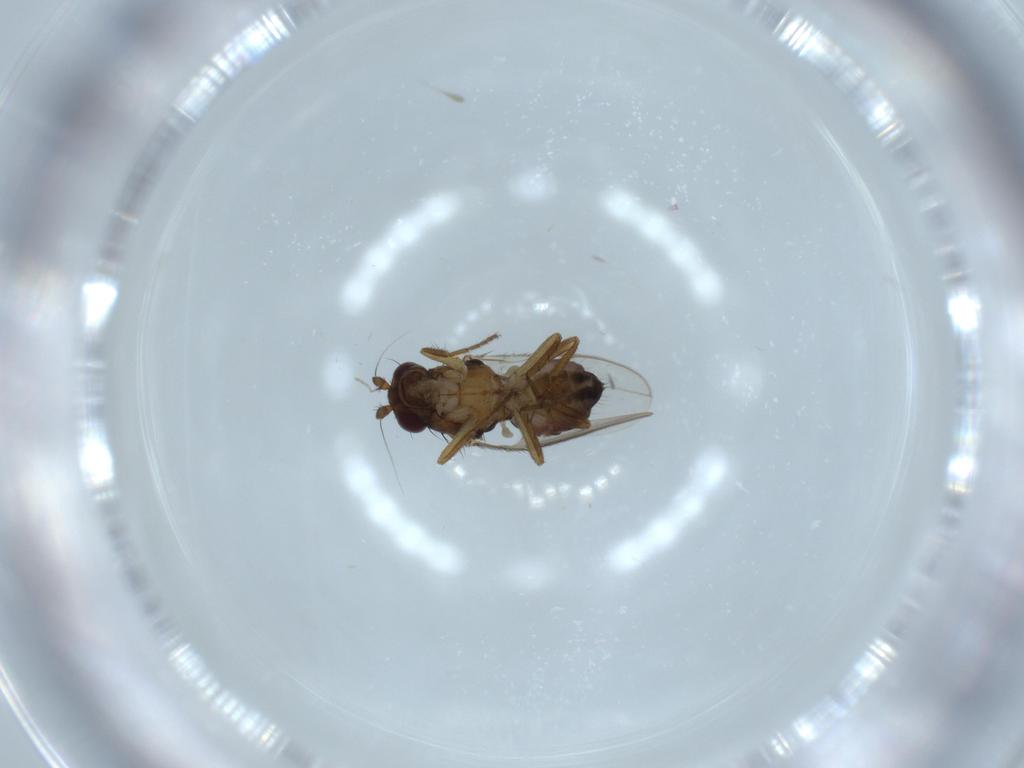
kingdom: Animalia
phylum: Arthropoda
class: Insecta
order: Diptera
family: Sphaeroceridae
